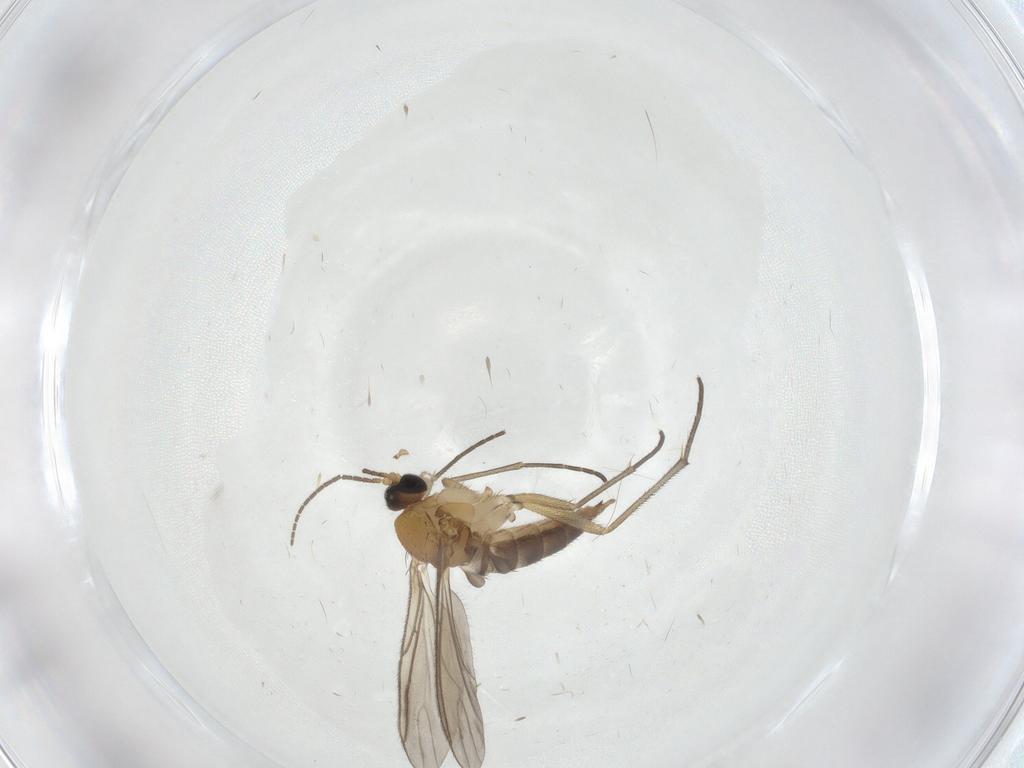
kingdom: Animalia
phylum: Arthropoda
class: Insecta
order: Diptera
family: Sciaridae
